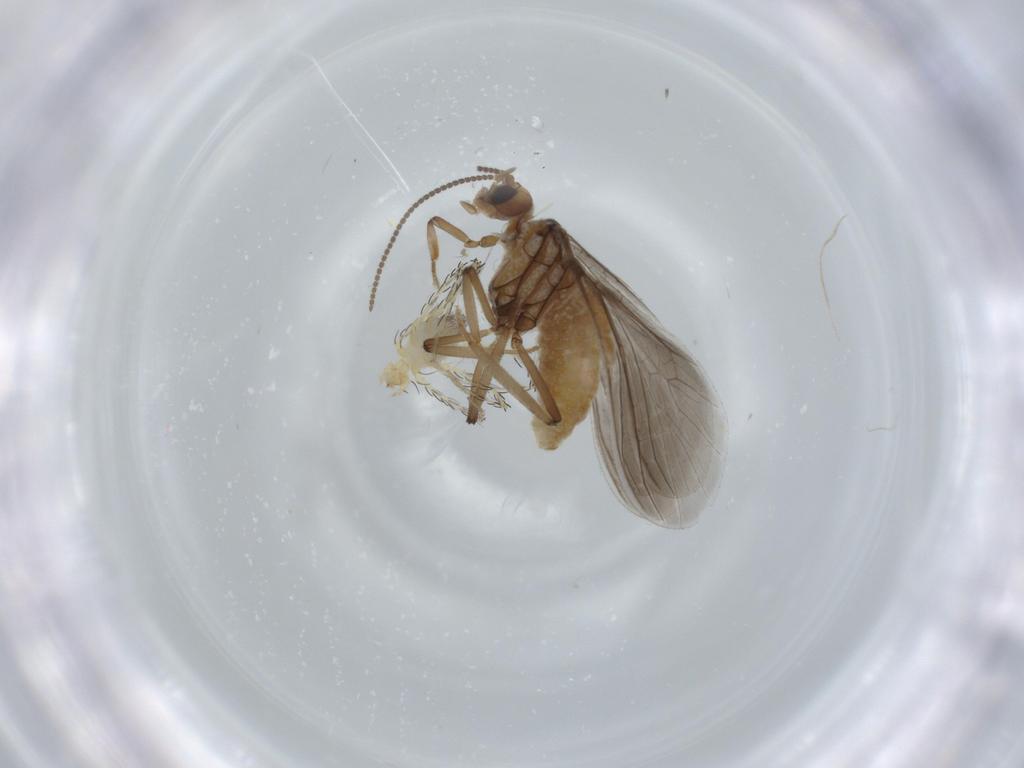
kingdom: Animalia
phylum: Arthropoda
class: Insecta
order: Neuroptera
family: Coniopterygidae
